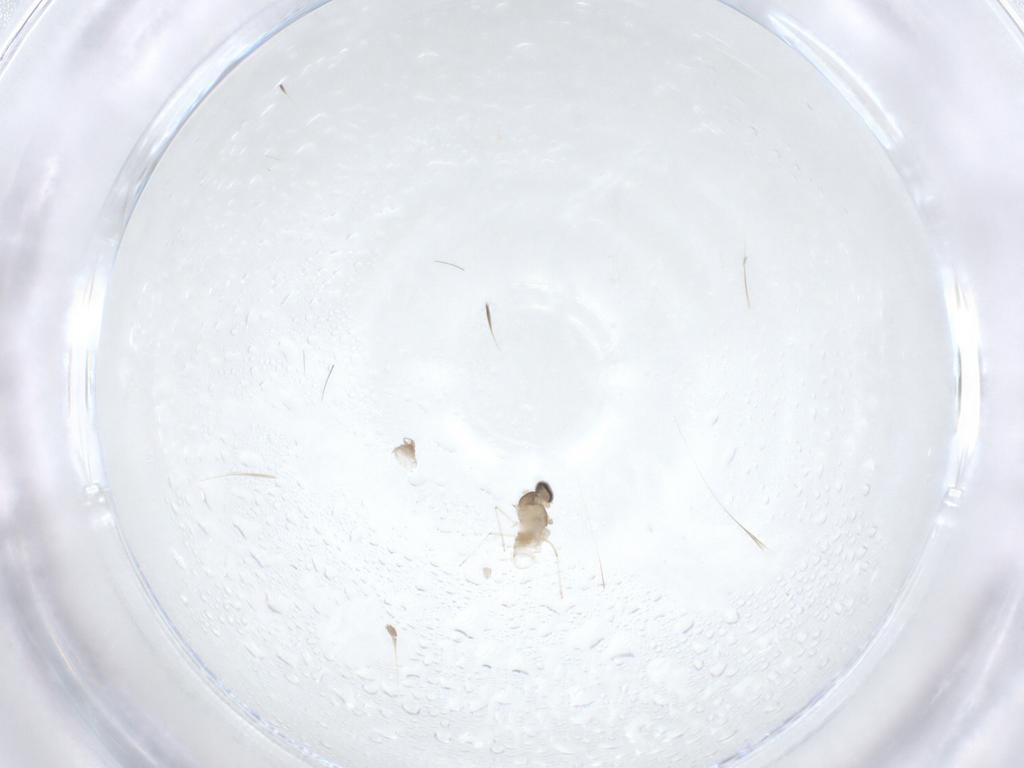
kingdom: Animalia
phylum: Arthropoda
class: Insecta
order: Diptera
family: Cecidomyiidae
